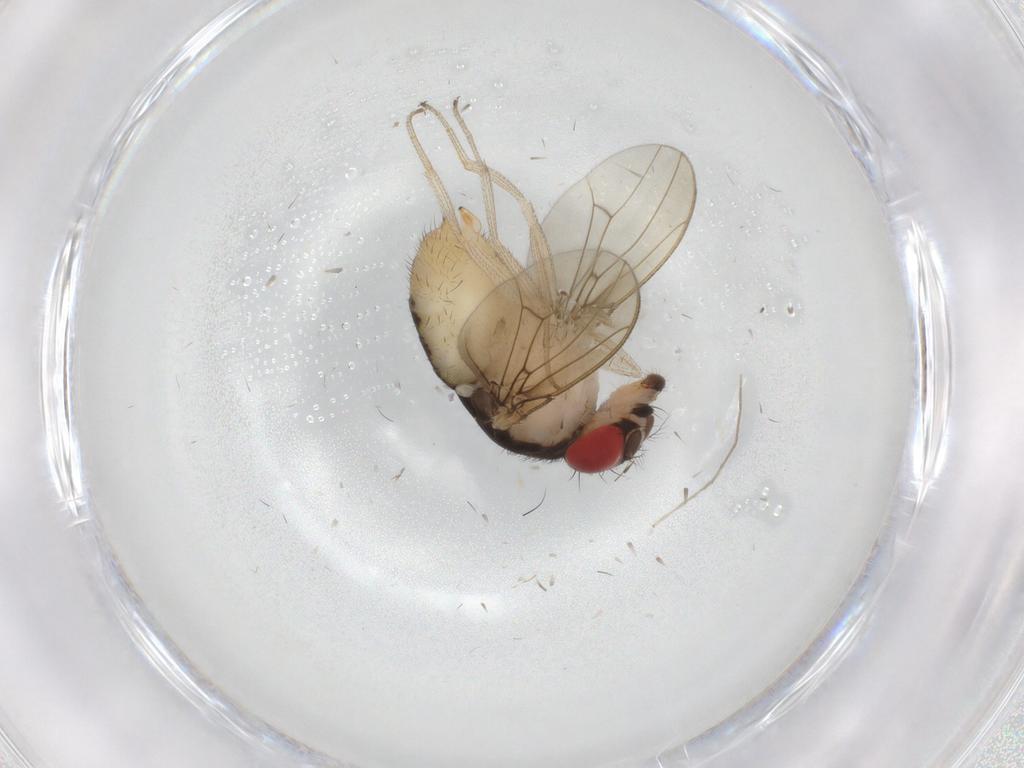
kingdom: Animalia
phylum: Arthropoda
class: Insecta
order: Diptera
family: Drosophilidae
